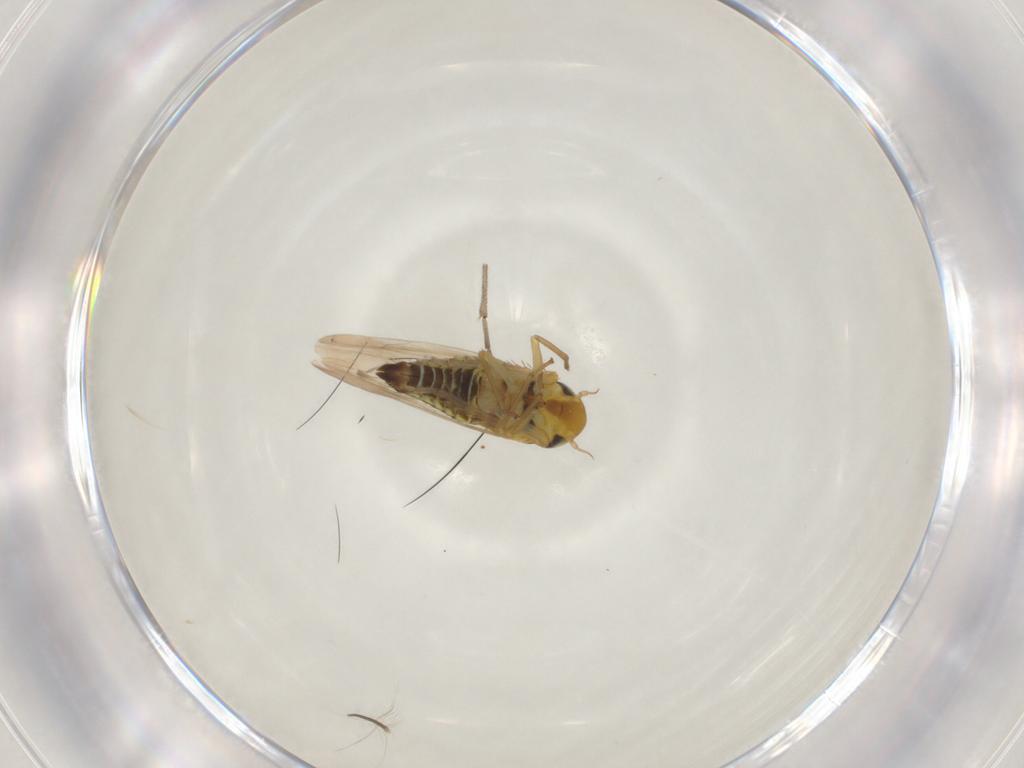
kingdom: Animalia
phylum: Arthropoda
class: Insecta
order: Hemiptera
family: Cicadellidae
